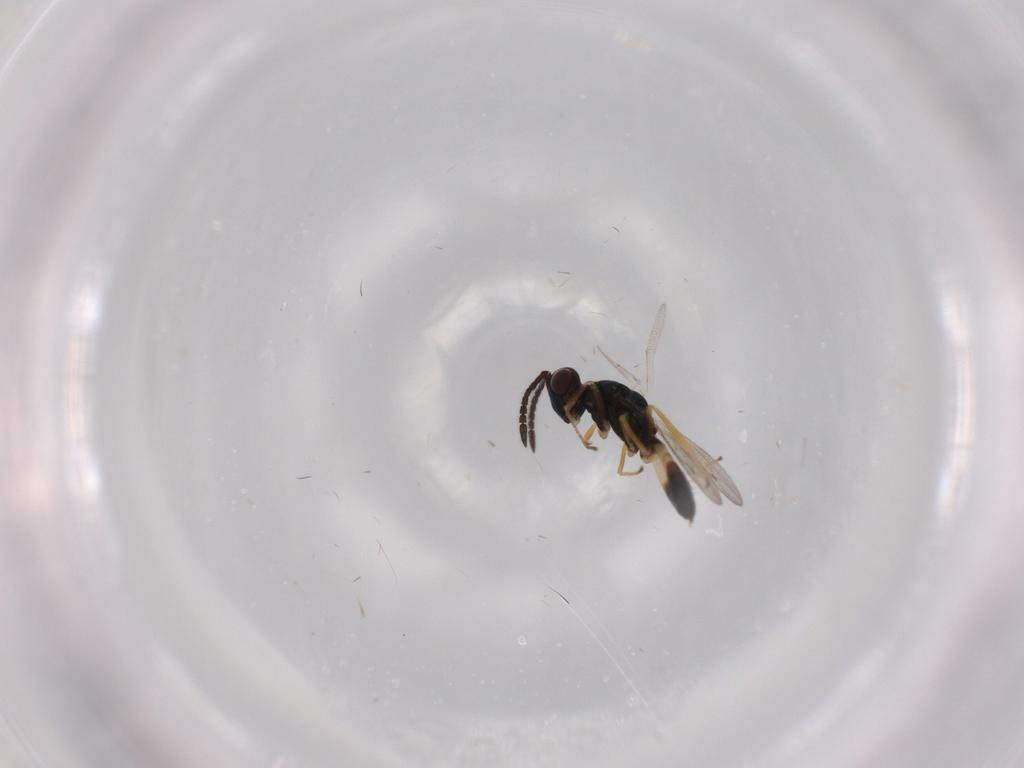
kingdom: Animalia
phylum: Arthropoda
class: Insecta
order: Hymenoptera
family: Pteromalidae
